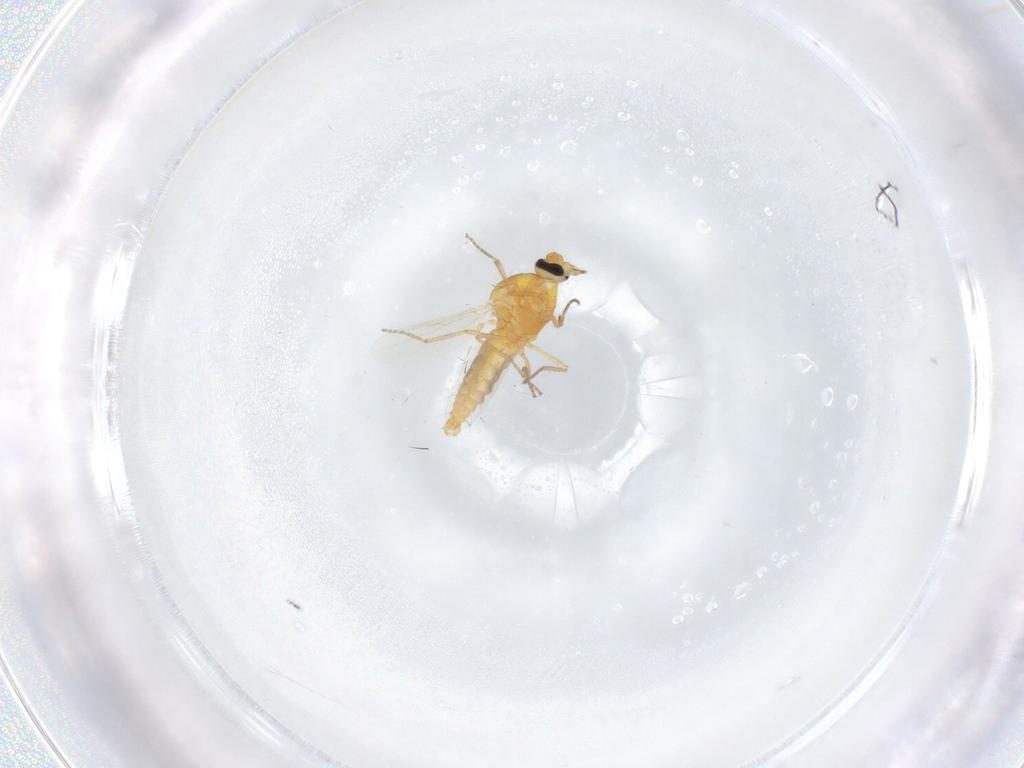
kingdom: Animalia
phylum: Arthropoda
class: Insecta
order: Diptera
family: Ceratopogonidae
